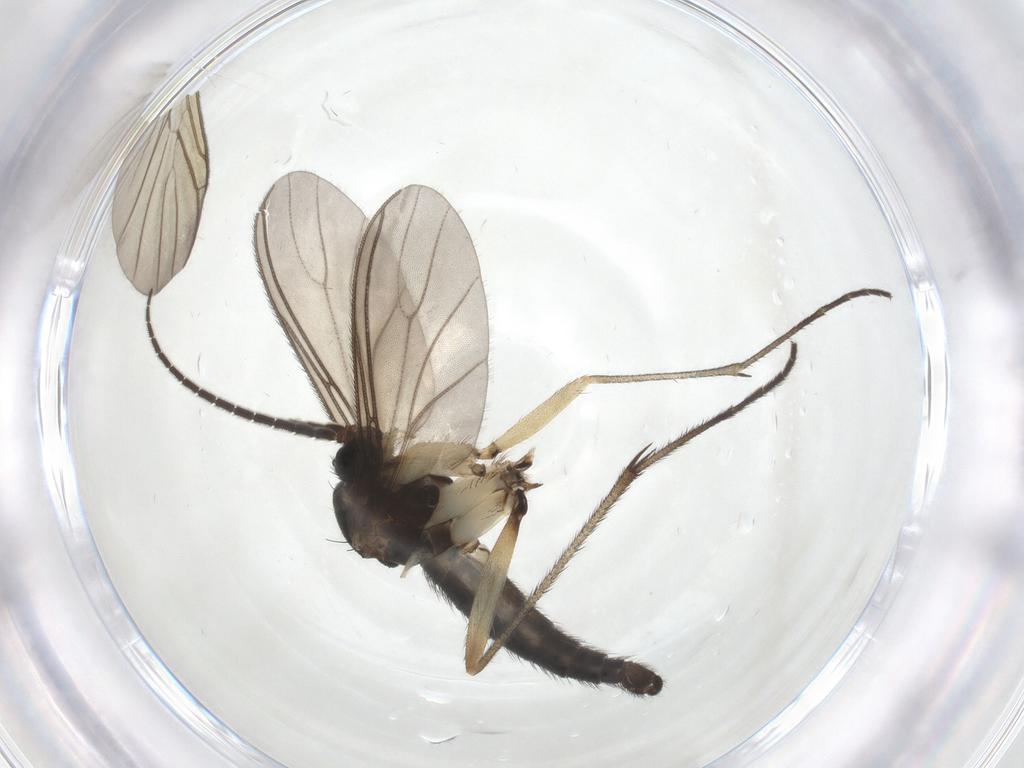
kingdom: Animalia
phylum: Arthropoda
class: Insecta
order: Diptera
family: Sciaridae
